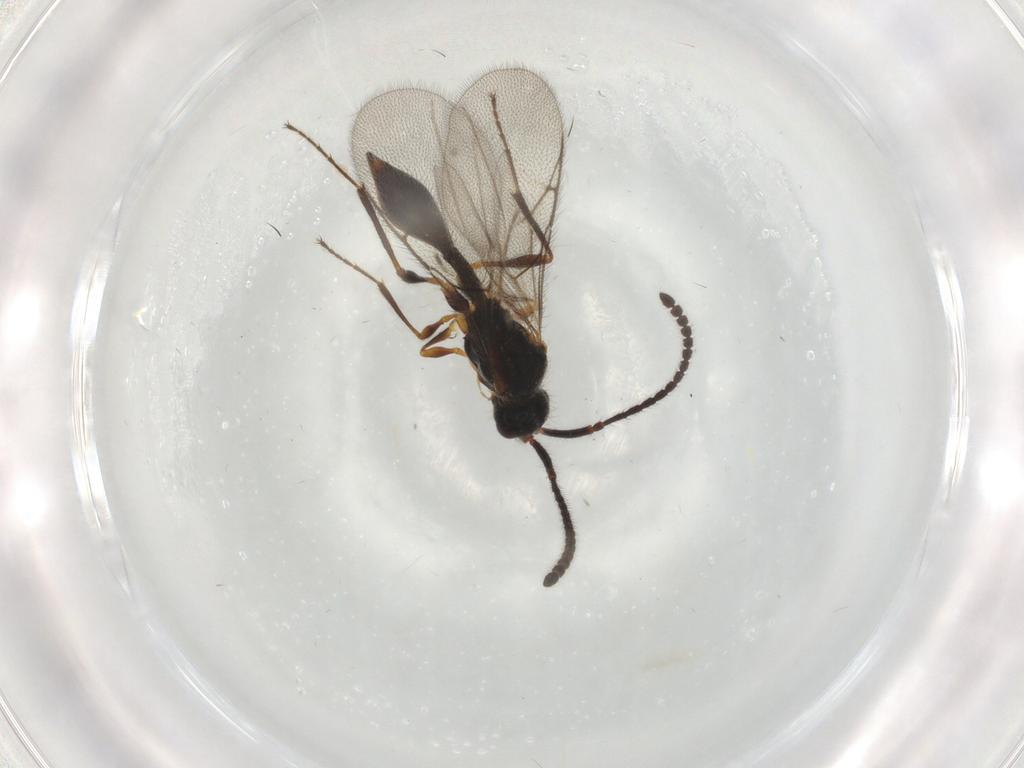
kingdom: Animalia
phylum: Arthropoda
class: Insecta
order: Hymenoptera
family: Diapriidae
